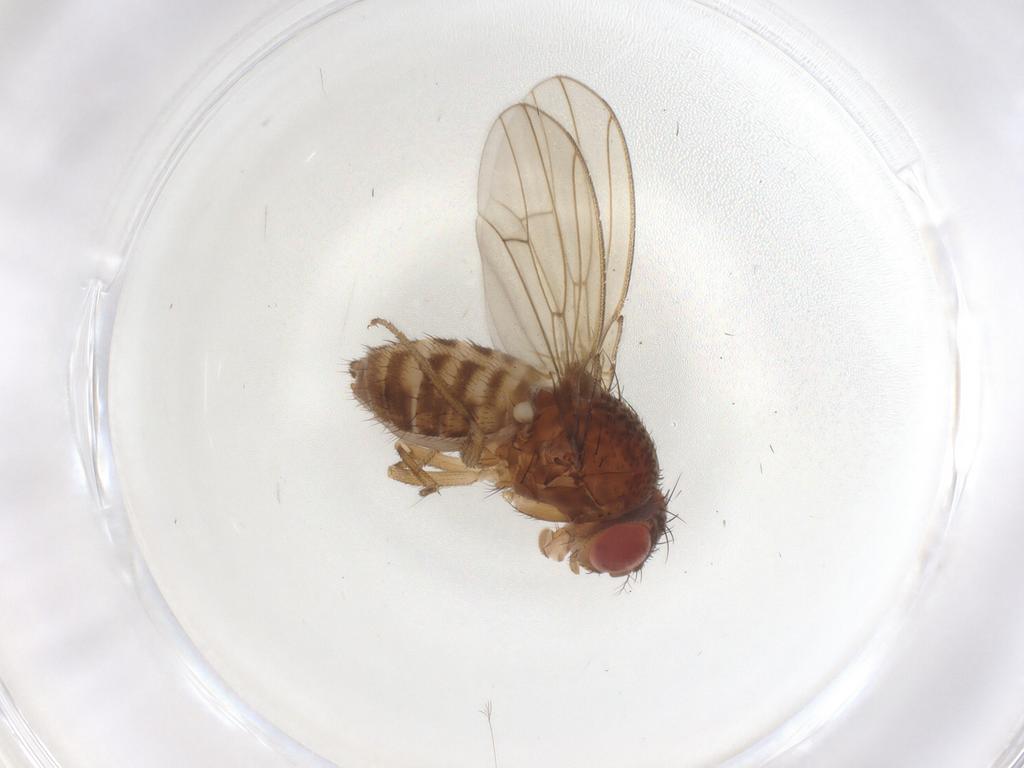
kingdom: Animalia
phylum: Arthropoda
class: Insecta
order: Diptera
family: Drosophilidae
